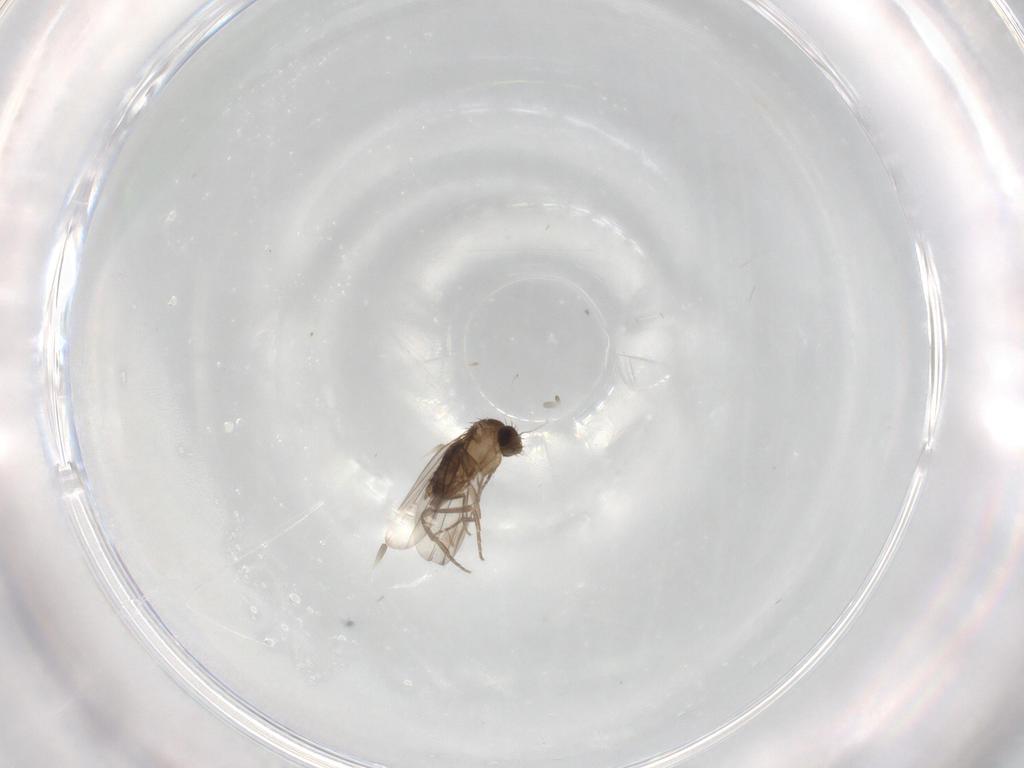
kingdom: Animalia
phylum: Arthropoda
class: Insecta
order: Diptera
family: Phoridae
